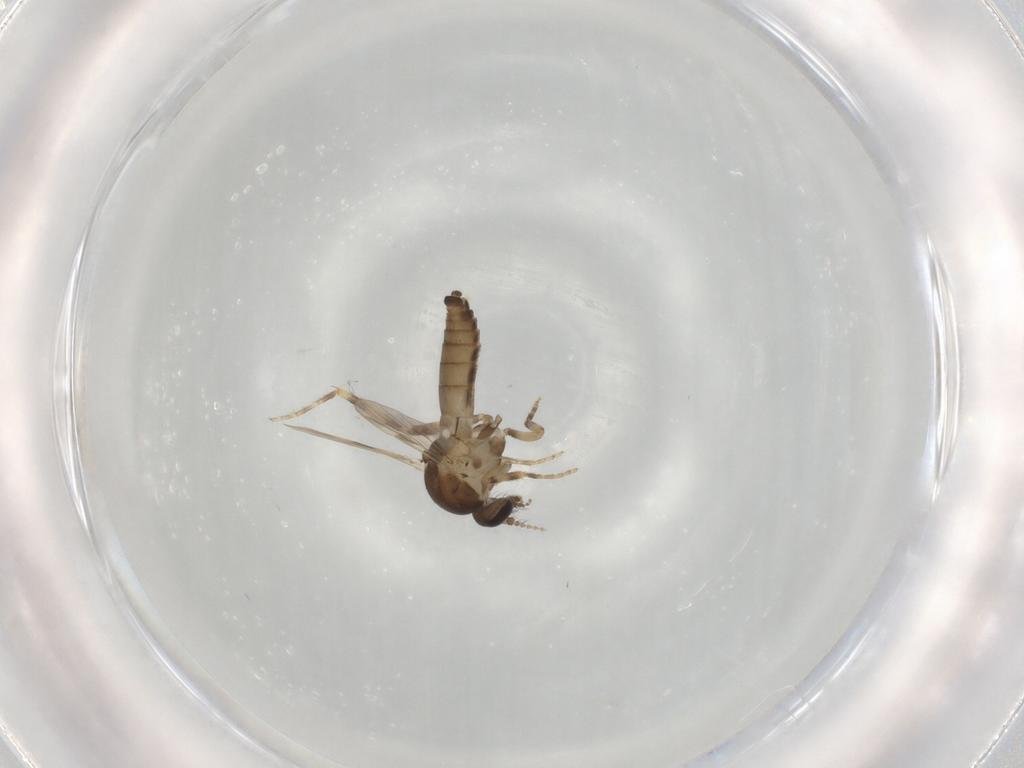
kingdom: Animalia
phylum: Arthropoda
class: Insecta
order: Diptera
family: Ceratopogonidae
